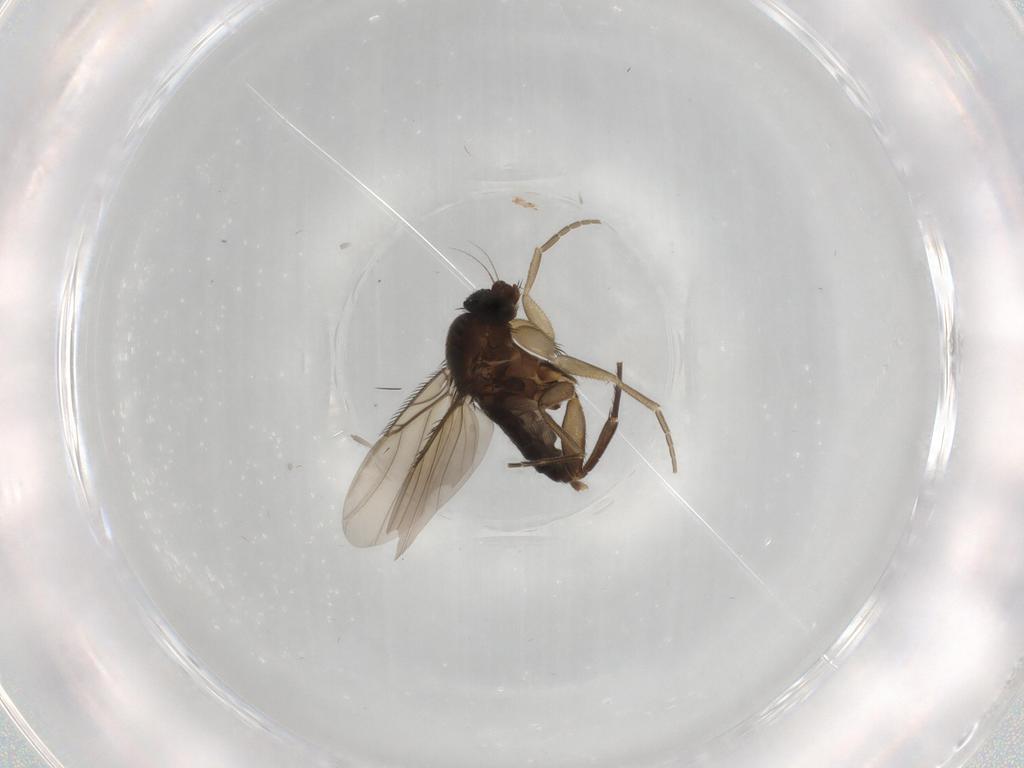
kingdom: Animalia
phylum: Arthropoda
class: Insecta
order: Diptera
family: Phoridae
